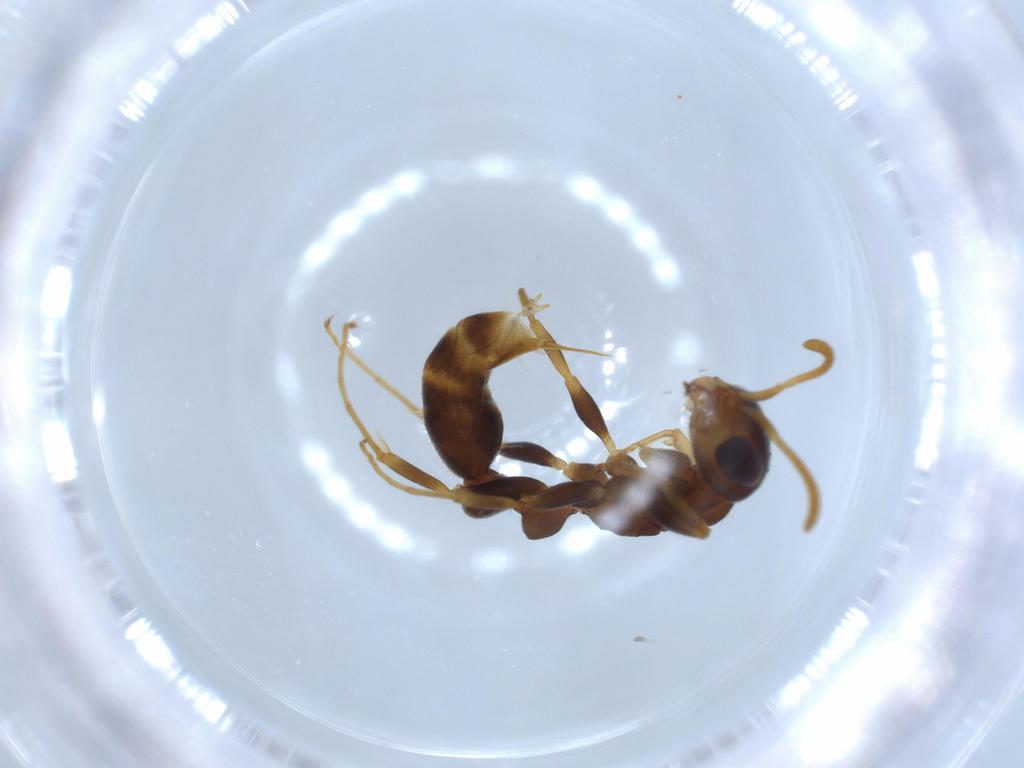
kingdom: Animalia
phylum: Arthropoda
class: Insecta
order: Hymenoptera
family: Formicidae
